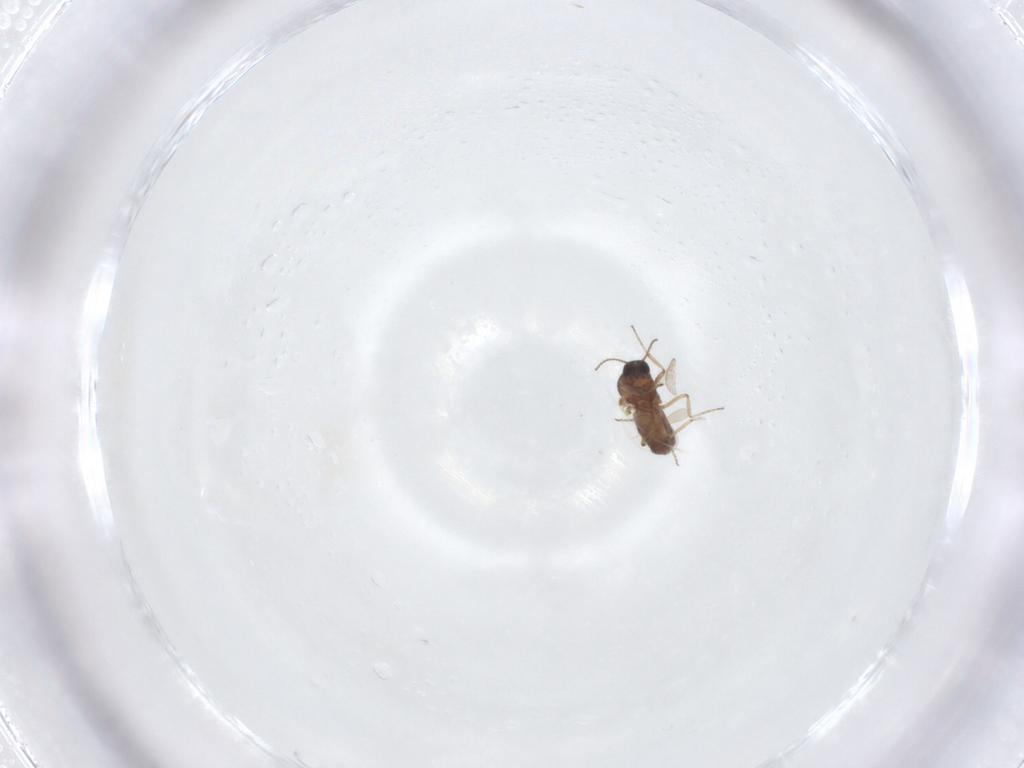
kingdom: Animalia
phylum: Arthropoda
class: Insecta
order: Diptera
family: Ceratopogonidae
